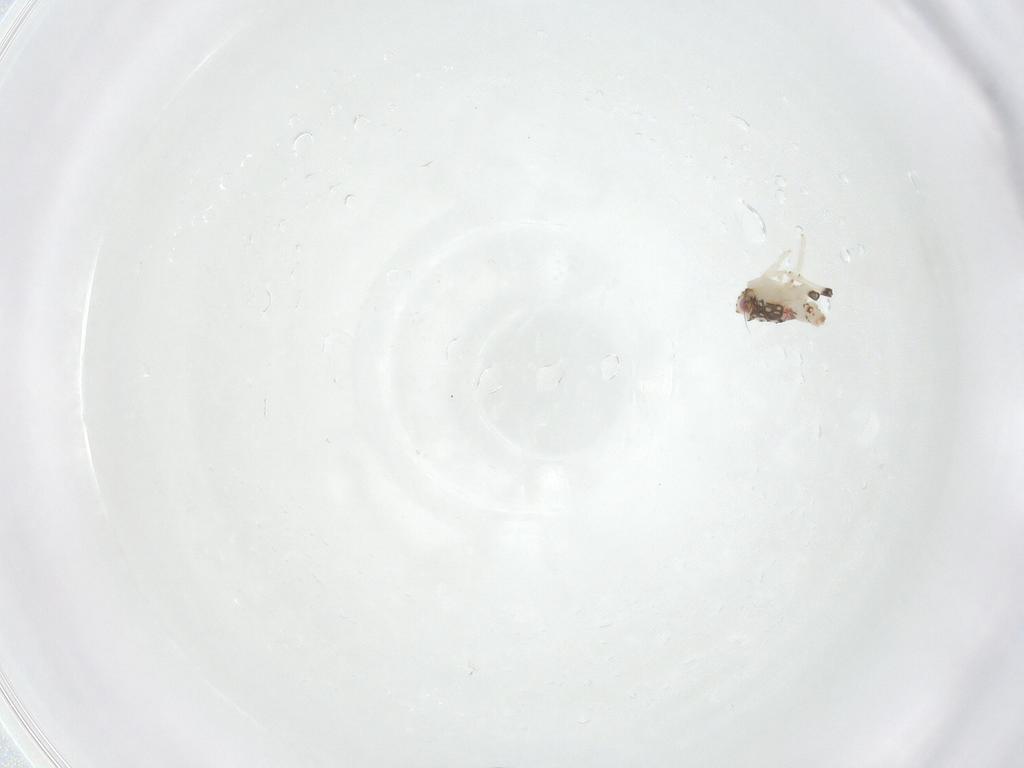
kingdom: Animalia
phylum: Arthropoda
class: Insecta
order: Hemiptera
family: Nogodinidae
